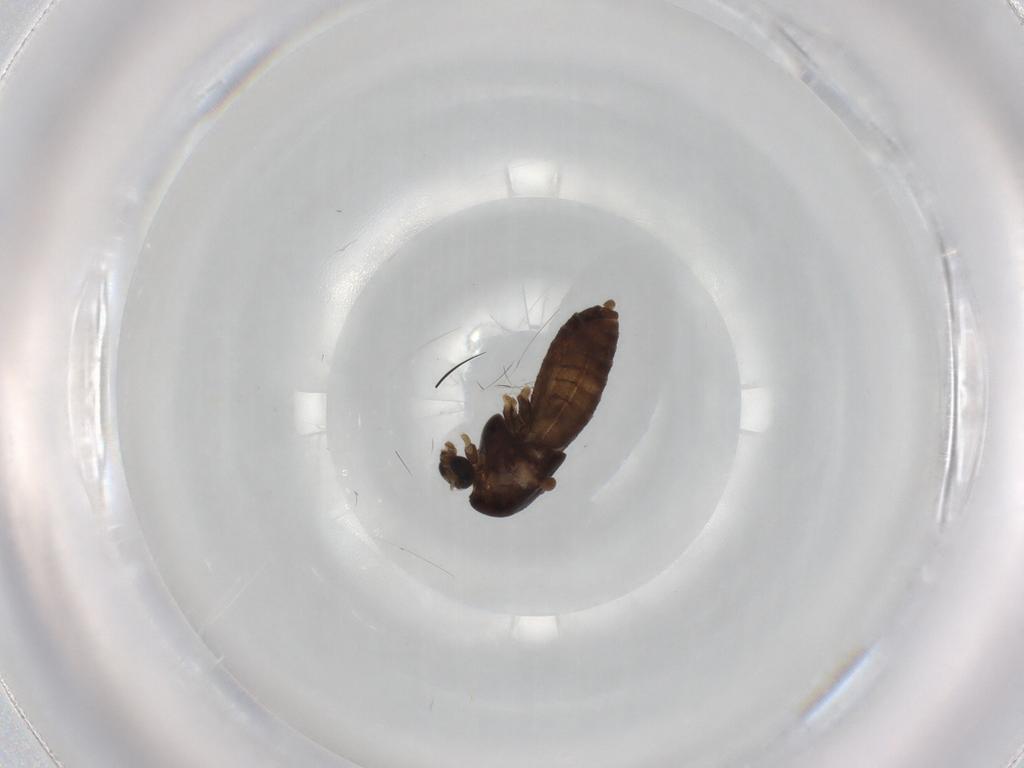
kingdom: Animalia
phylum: Arthropoda
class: Insecta
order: Diptera
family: Chironomidae
